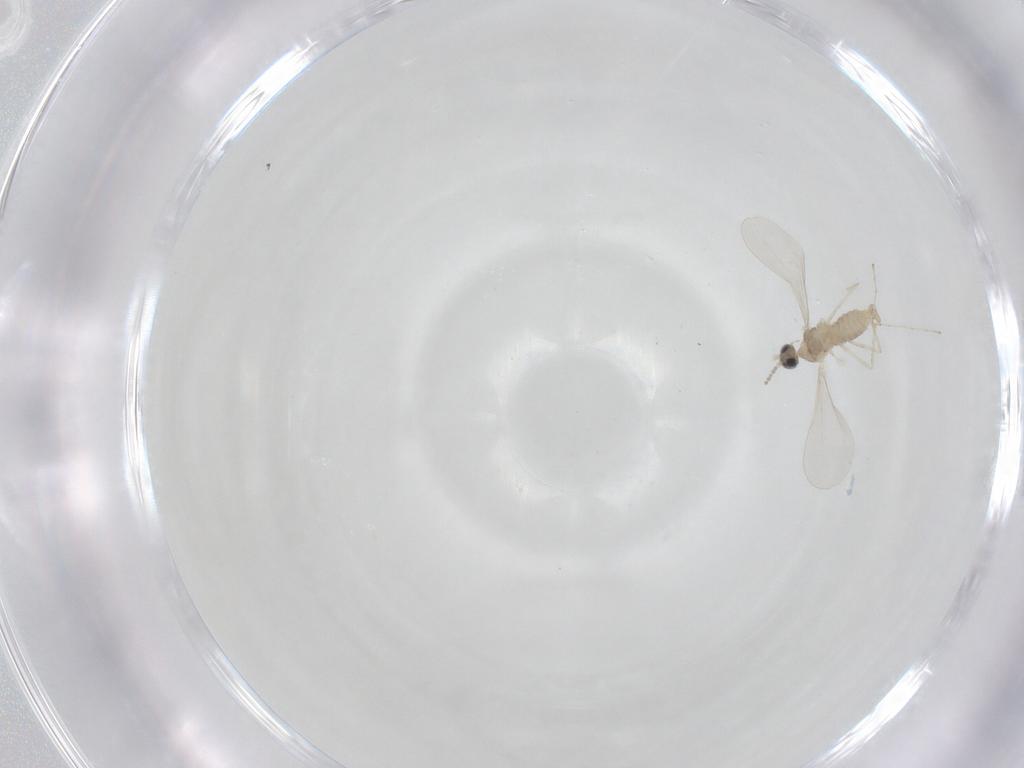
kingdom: Animalia
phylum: Arthropoda
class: Insecta
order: Diptera
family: Cecidomyiidae
